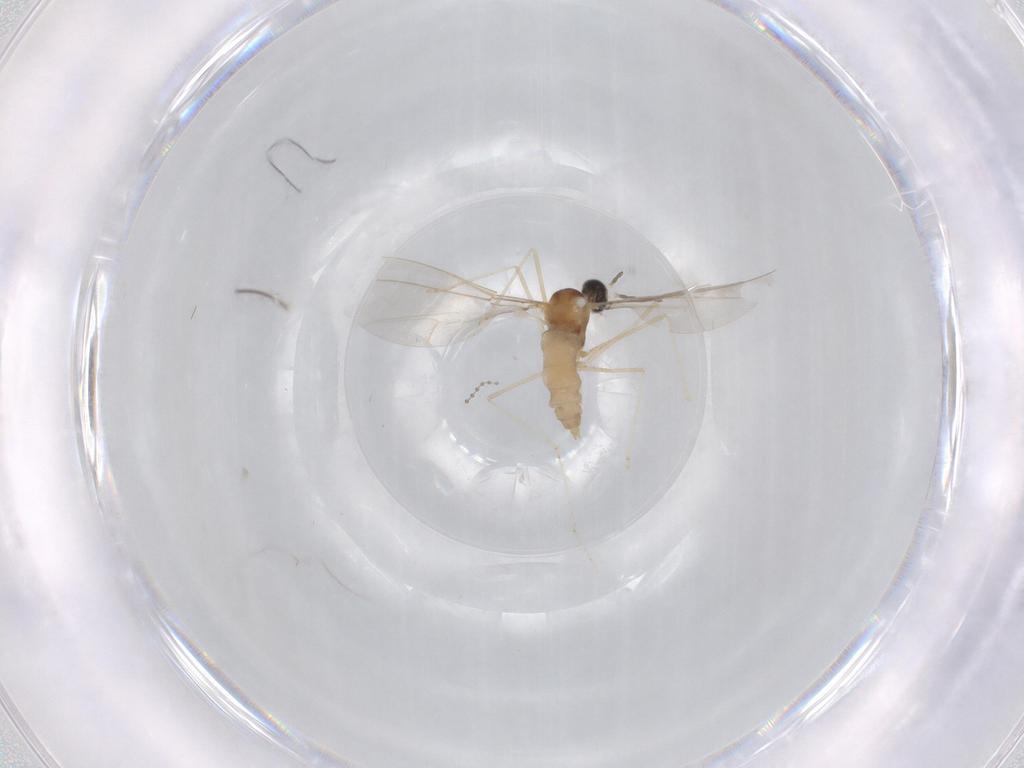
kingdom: Animalia
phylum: Arthropoda
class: Insecta
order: Diptera
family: Cecidomyiidae
